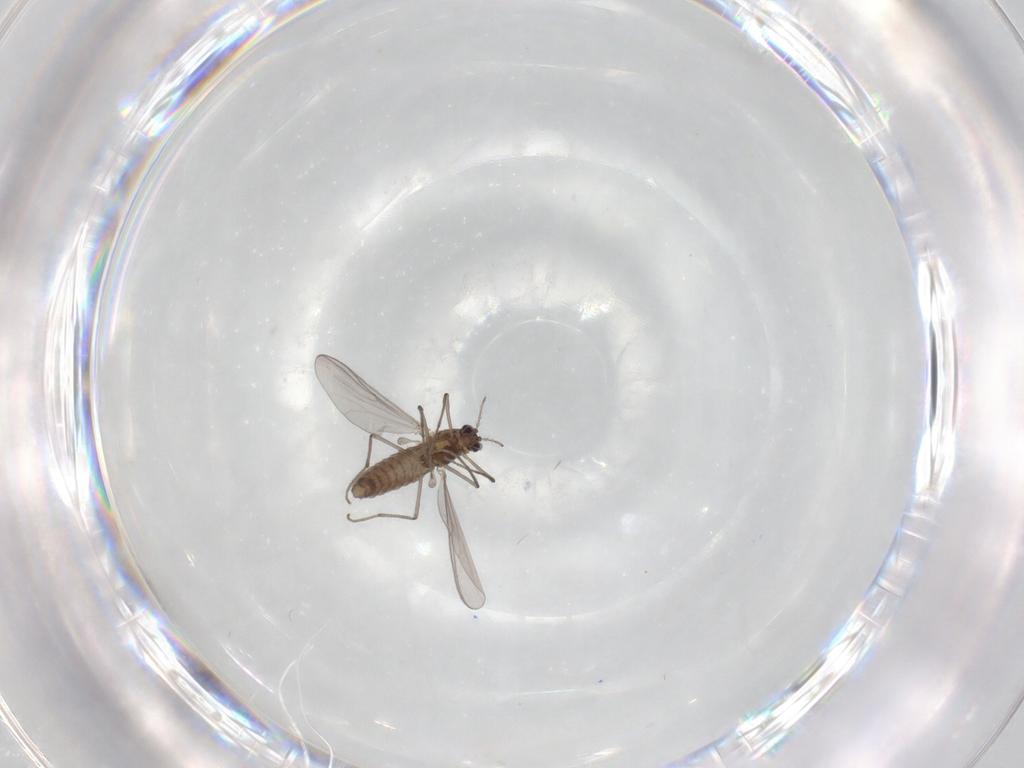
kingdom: Animalia
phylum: Arthropoda
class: Insecta
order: Diptera
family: Chironomidae
